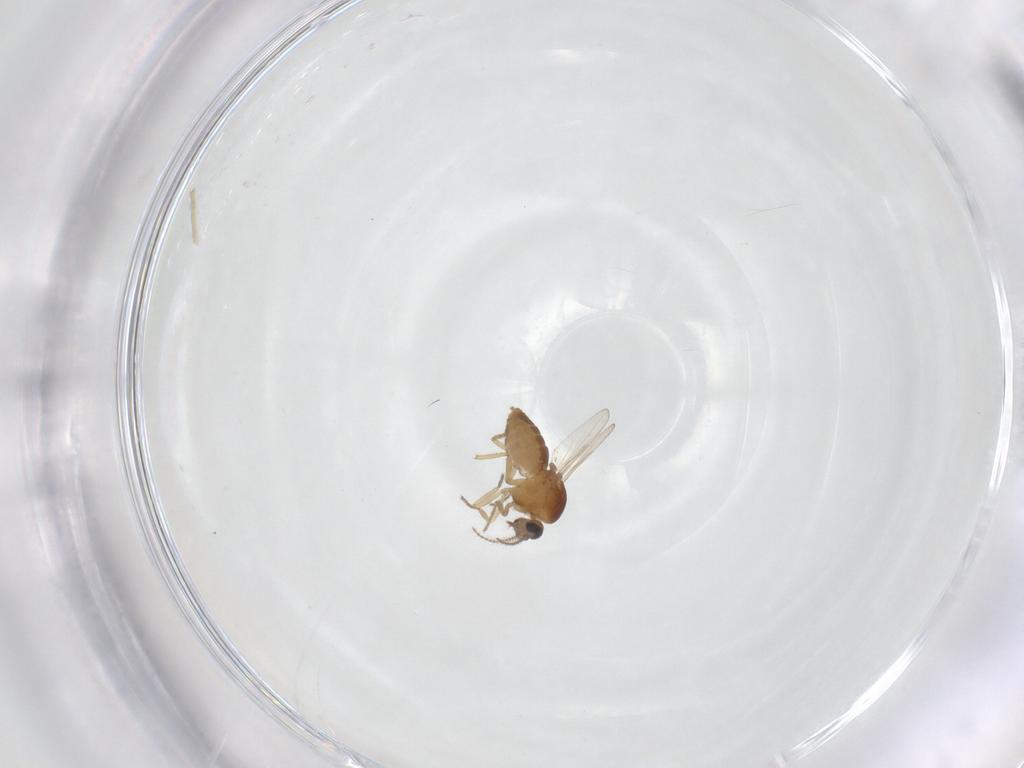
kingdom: Animalia
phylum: Arthropoda
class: Insecta
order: Diptera
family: Ceratopogonidae
